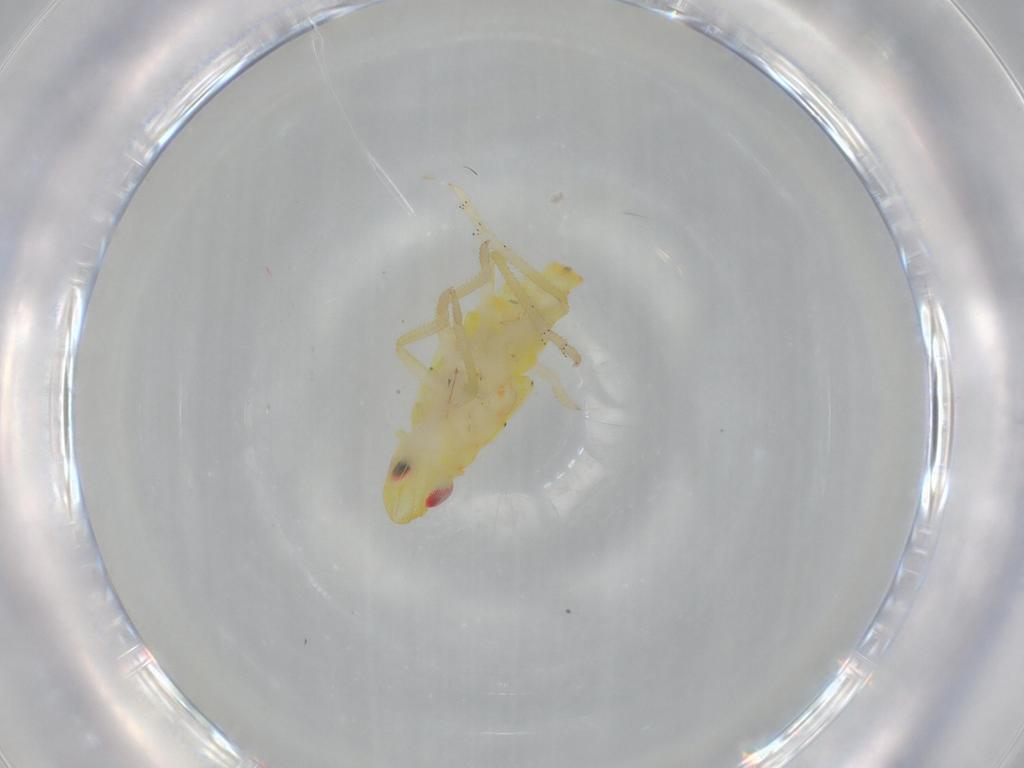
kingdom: Animalia
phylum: Arthropoda
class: Insecta
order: Hemiptera
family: Tropiduchidae
